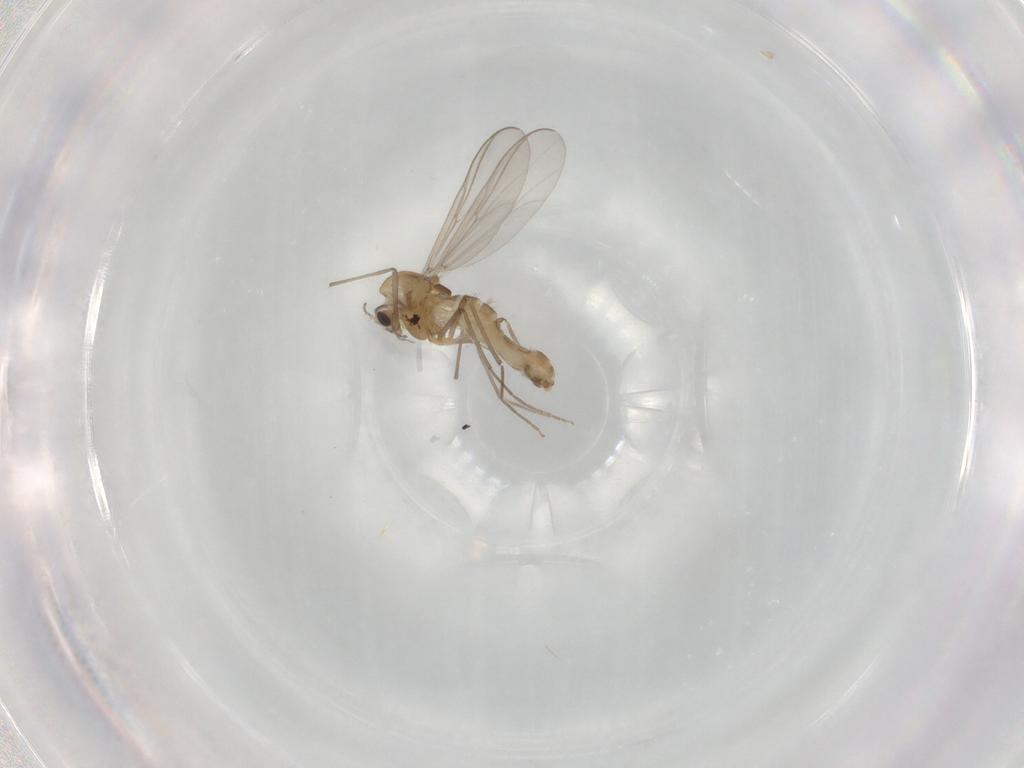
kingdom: Animalia
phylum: Arthropoda
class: Insecta
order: Diptera
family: Chironomidae
